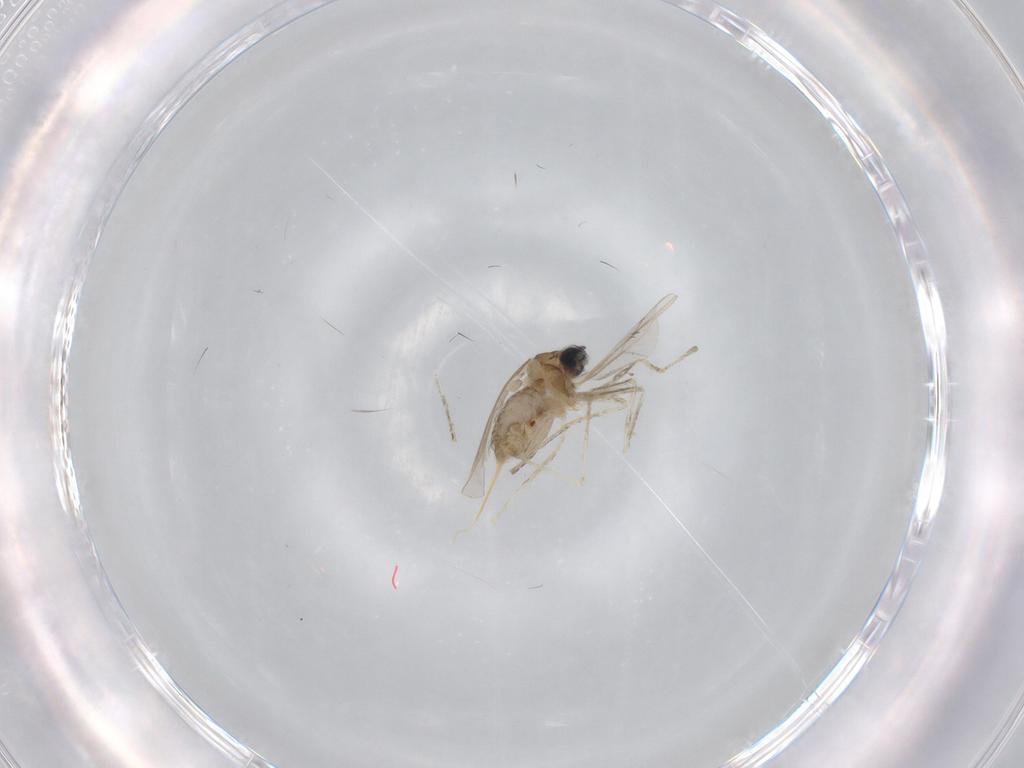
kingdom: Animalia
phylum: Arthropoda
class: Insecta
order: Diptera
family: Cecidomyiidae
